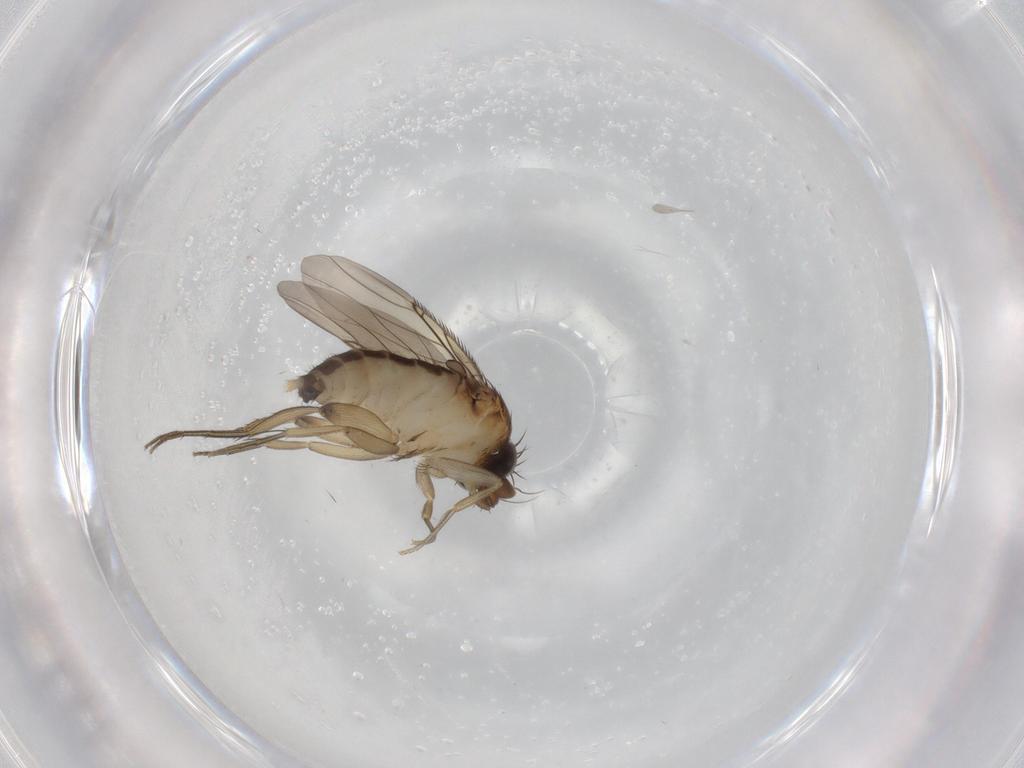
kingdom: Animalia
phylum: Arthropoda
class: Insecta
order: Diptera
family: Phoridae
